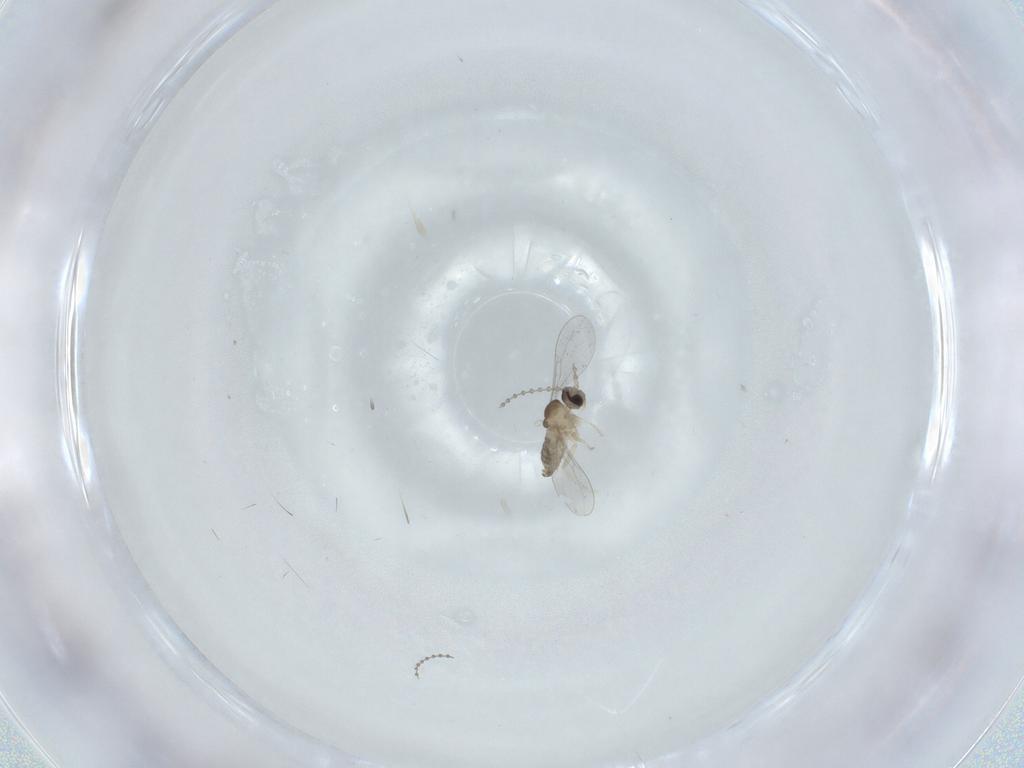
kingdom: Animalia
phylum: Arthropoda
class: Insecta
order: Diptera
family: Cecidomyiidae
